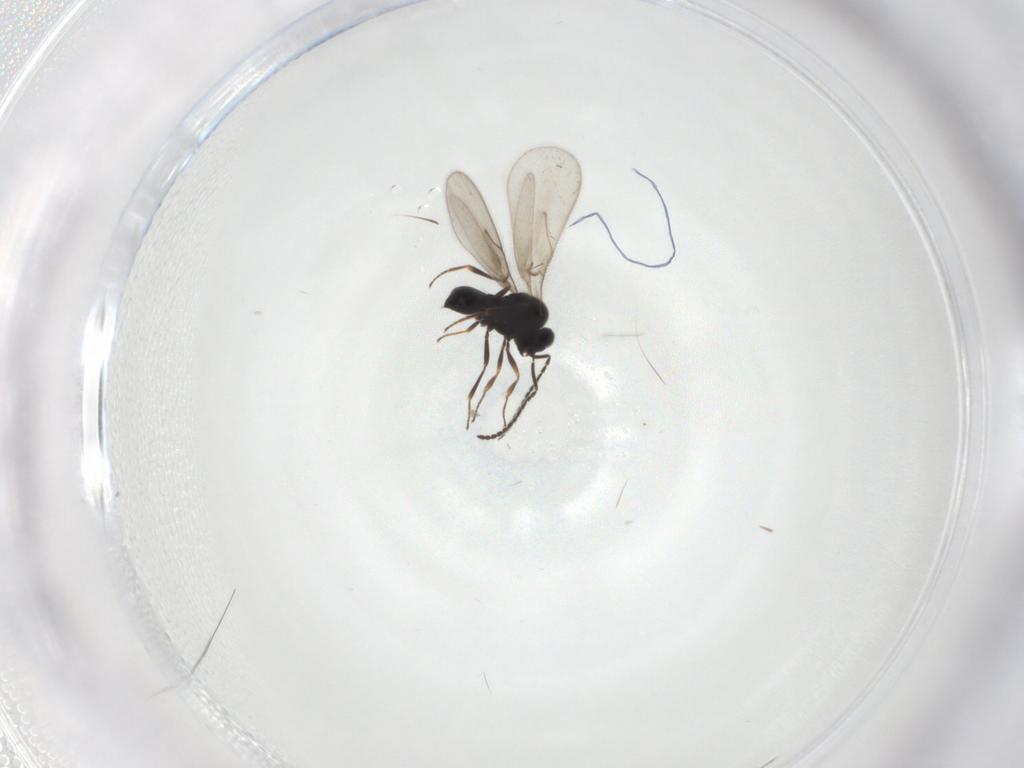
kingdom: Animalia
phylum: Arthropoda
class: Insecta
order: Hymenoptera
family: Scelionidae
